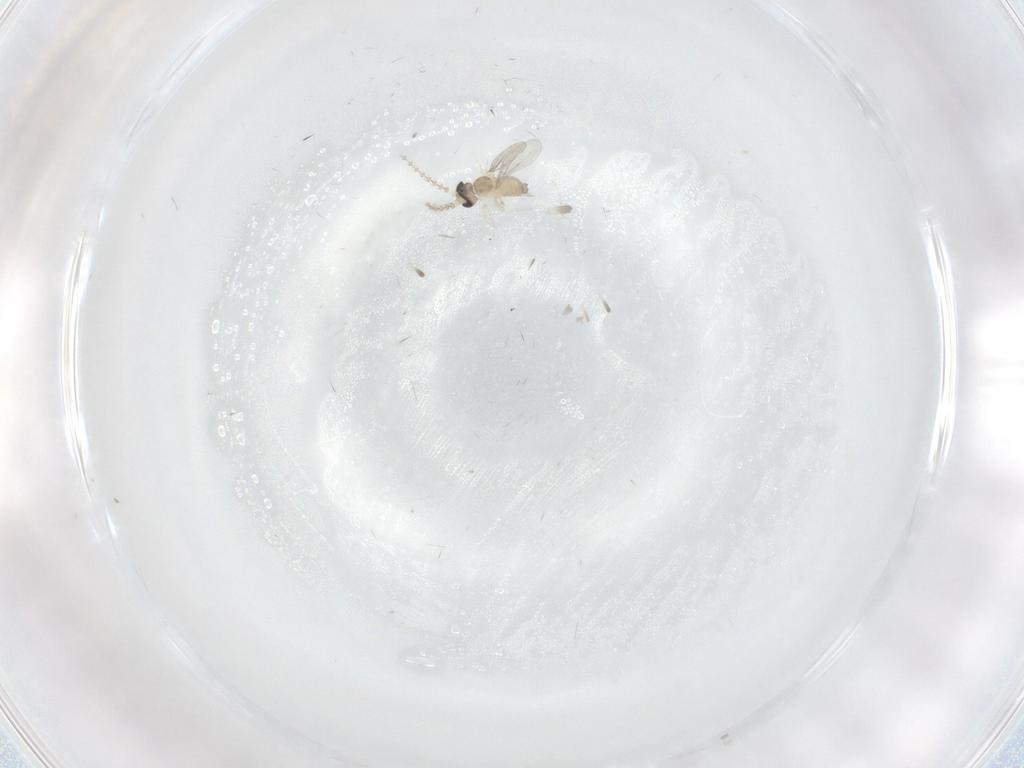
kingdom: Animalia
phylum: Arthropoda
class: Insecta
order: Diptera
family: Cecidomyiidae
